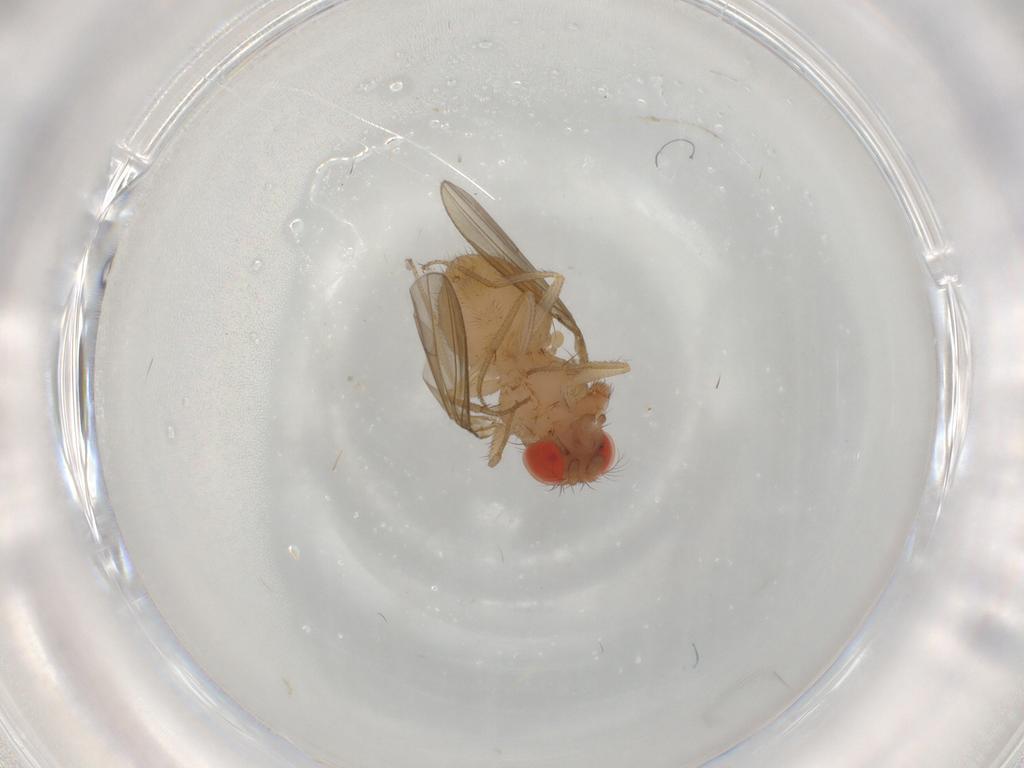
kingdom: Animalia
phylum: Arthropoda
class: Insecta
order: Diptera
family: Drosophilidae
